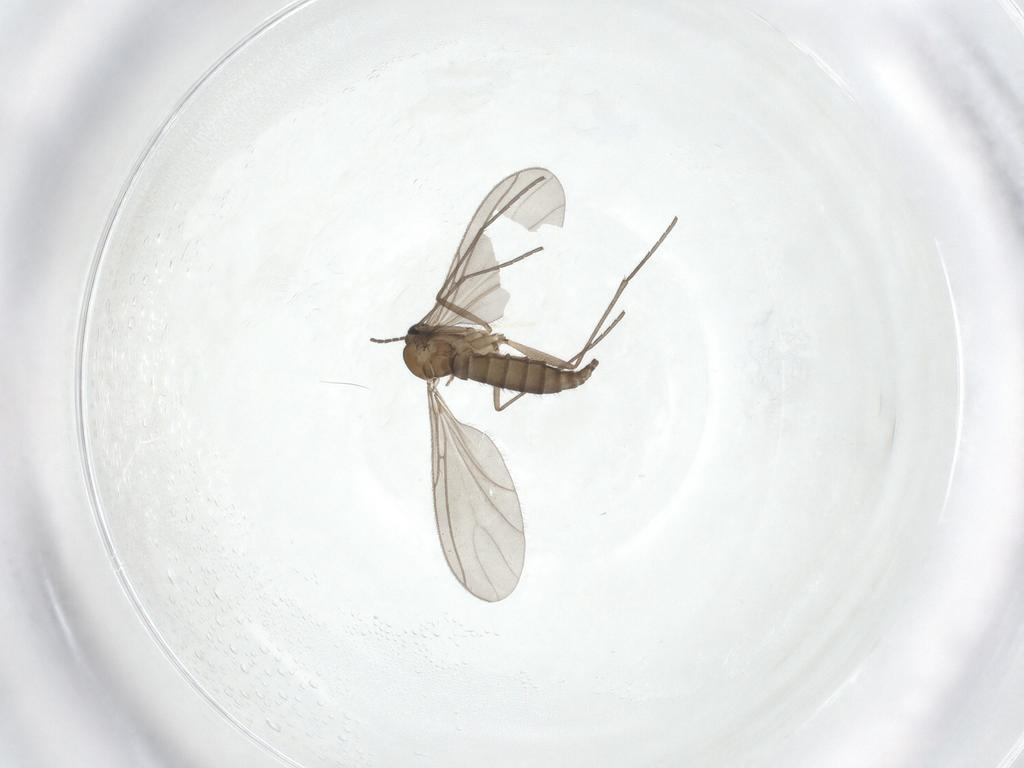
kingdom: Animalia
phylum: Arthropoda
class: Insecta
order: Diptera
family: Sciaridae
